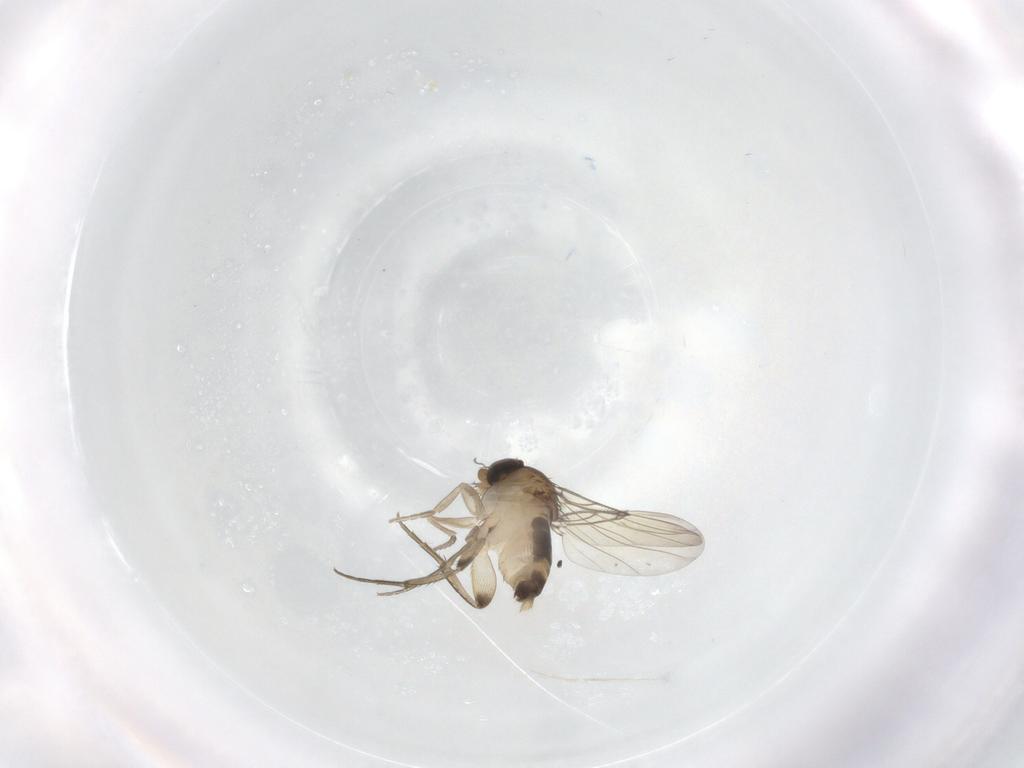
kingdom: Animalia
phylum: Arthropoda
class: Insecta
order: Diptera
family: Phoridae
